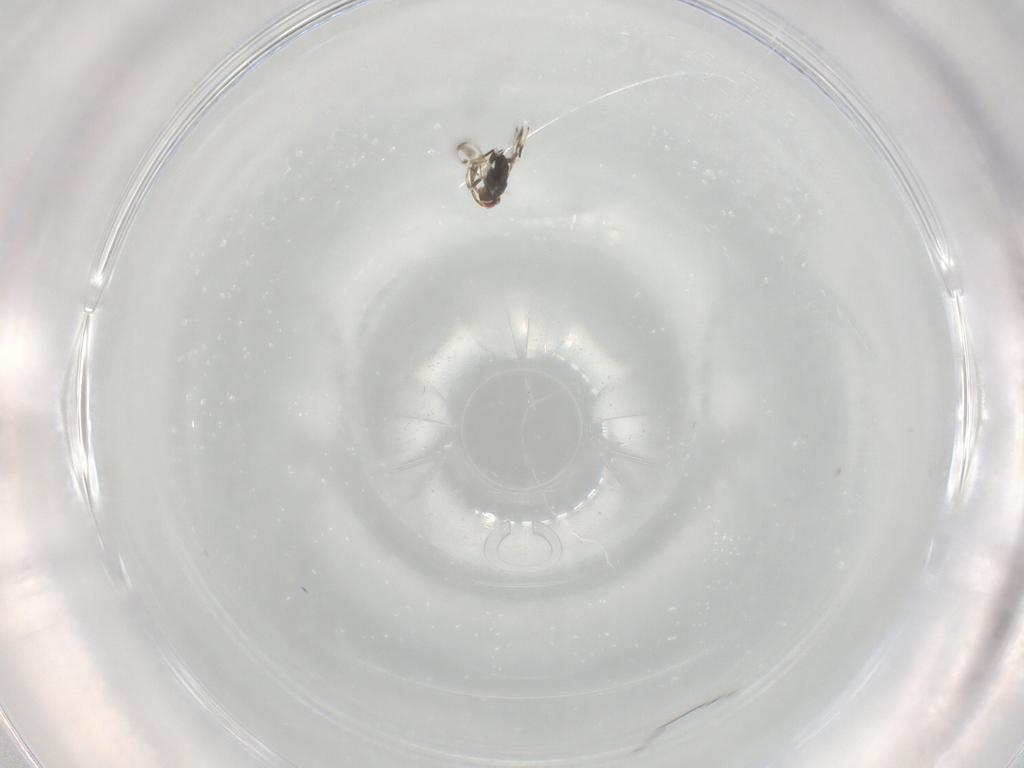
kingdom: Animalia
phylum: Arthropoda
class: Insecta
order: Hymenoptera
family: Azotidae
